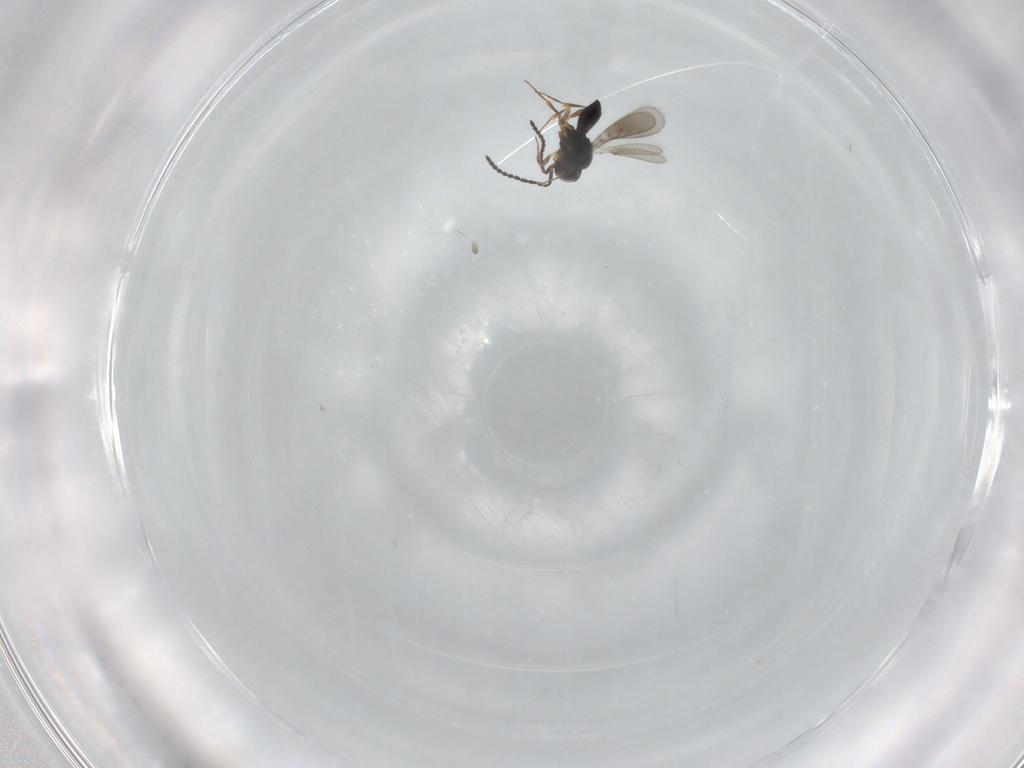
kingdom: Animalia
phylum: Arthropoda
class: Insecta
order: Hymenoptera
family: Scelionidae
